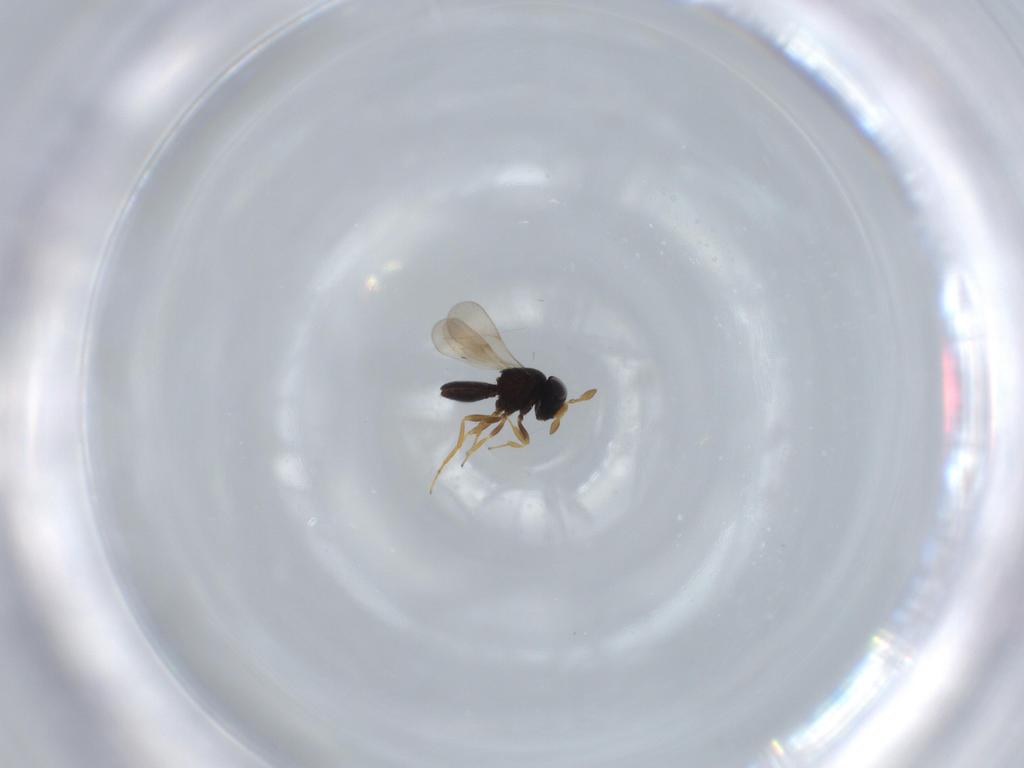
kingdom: Animalia
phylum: Arthropoda
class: Insecta
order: Hymenoptera
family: Scelionidae
